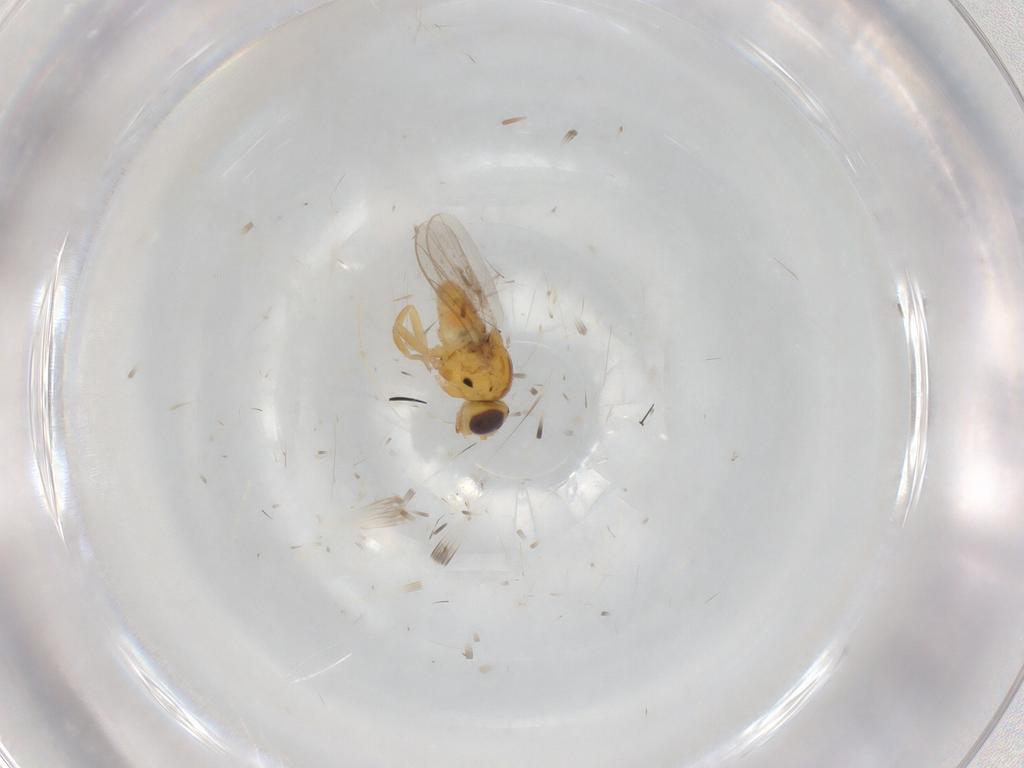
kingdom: Animalia
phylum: Arthropoda
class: Insecta
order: Diptera
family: Chloropidae
